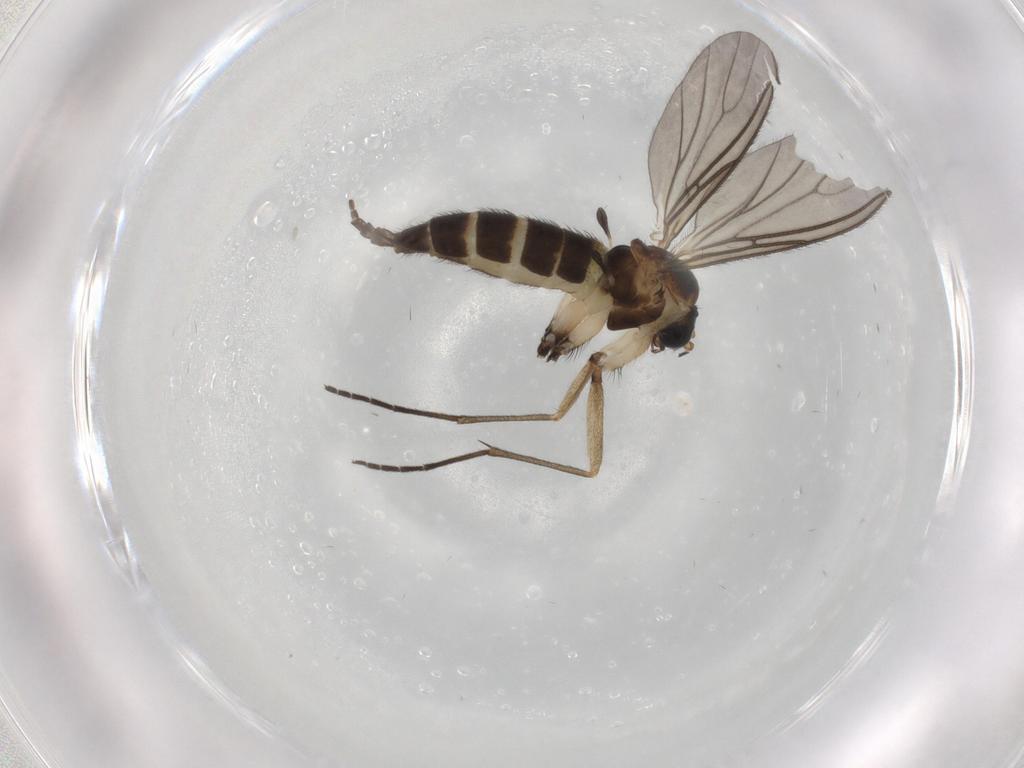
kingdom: Animalia
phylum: Arthropoda
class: Insecta
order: Diptera
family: Sciaridae
